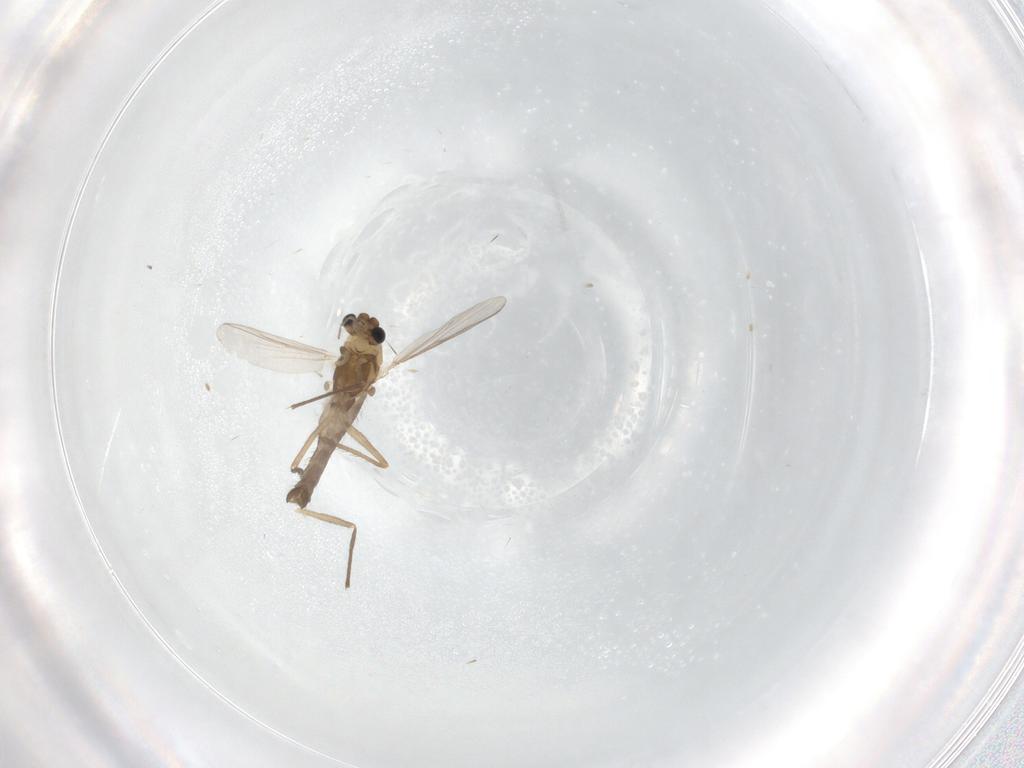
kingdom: Animalia
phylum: Arthropoda
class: Insecta
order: Diptera
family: Chironomidae
